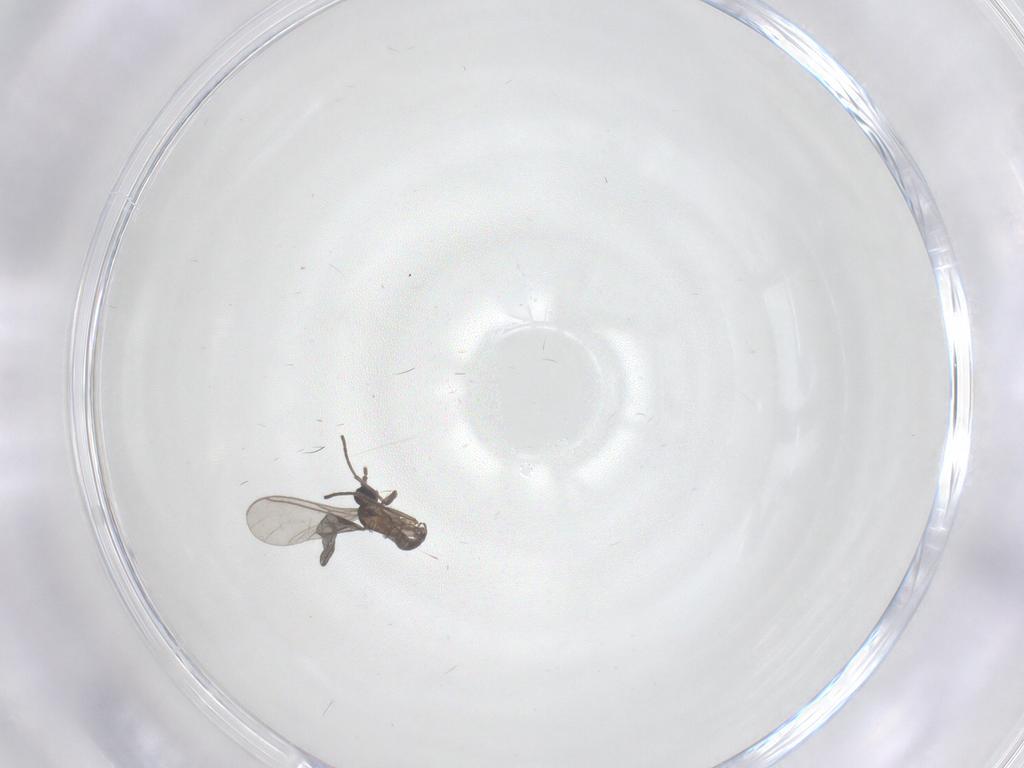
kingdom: Animalia
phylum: Arthropoda
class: Insecta
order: Diptera
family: Sciaridae
